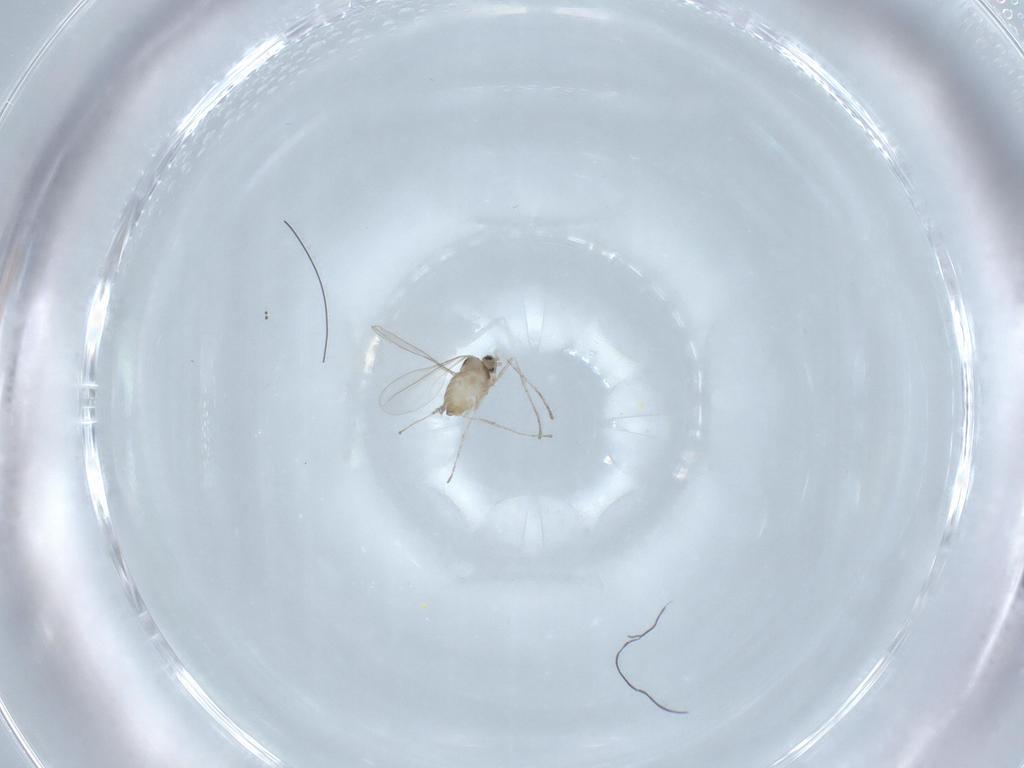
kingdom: Animalia
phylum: Arthropoda
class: Insecta
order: Diptera
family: Cecidomyiidae
